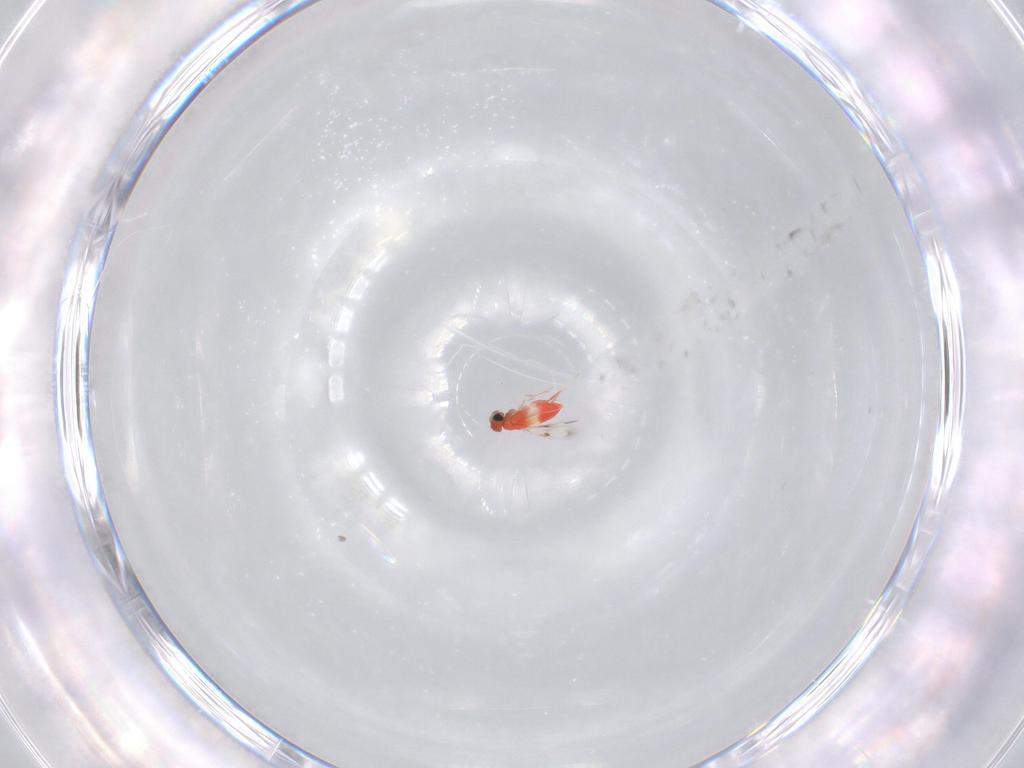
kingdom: Animalia
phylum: Arthropoda
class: Insecta
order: Hymenoptera
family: Trichogrammatidae
